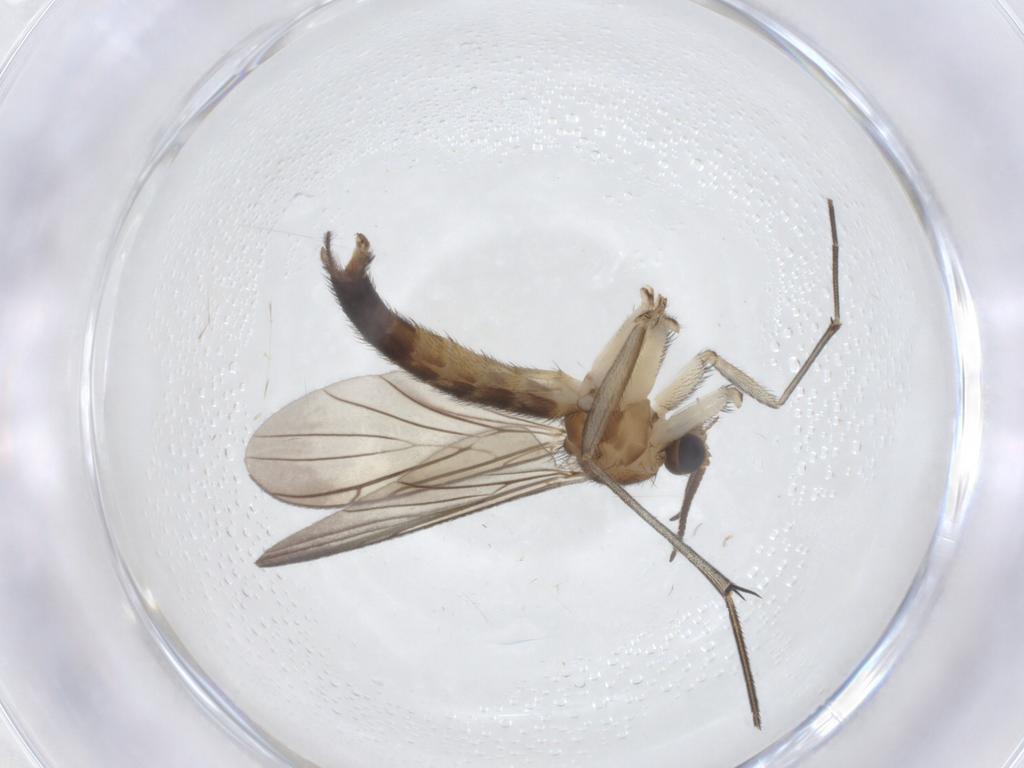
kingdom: Animalia
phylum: Arthropoda
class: Insecta
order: Diptera
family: Keroplatidae
